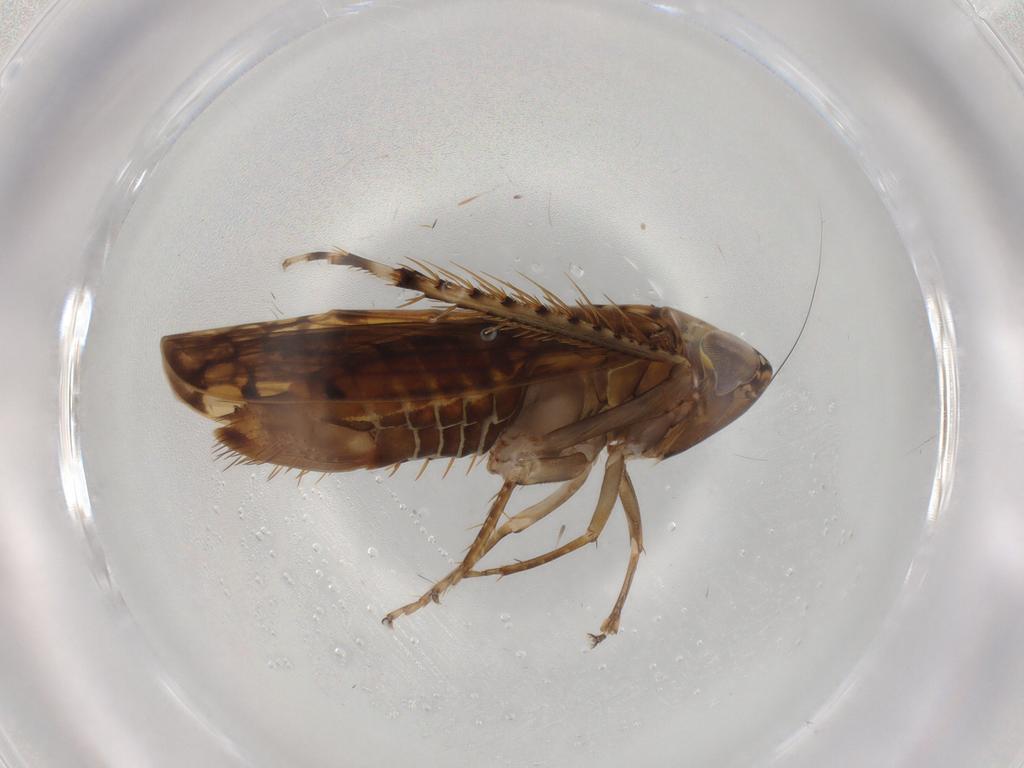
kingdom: Animalia
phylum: Arthropoda
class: Insecta
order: Hemiptera
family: Cicadellidae
